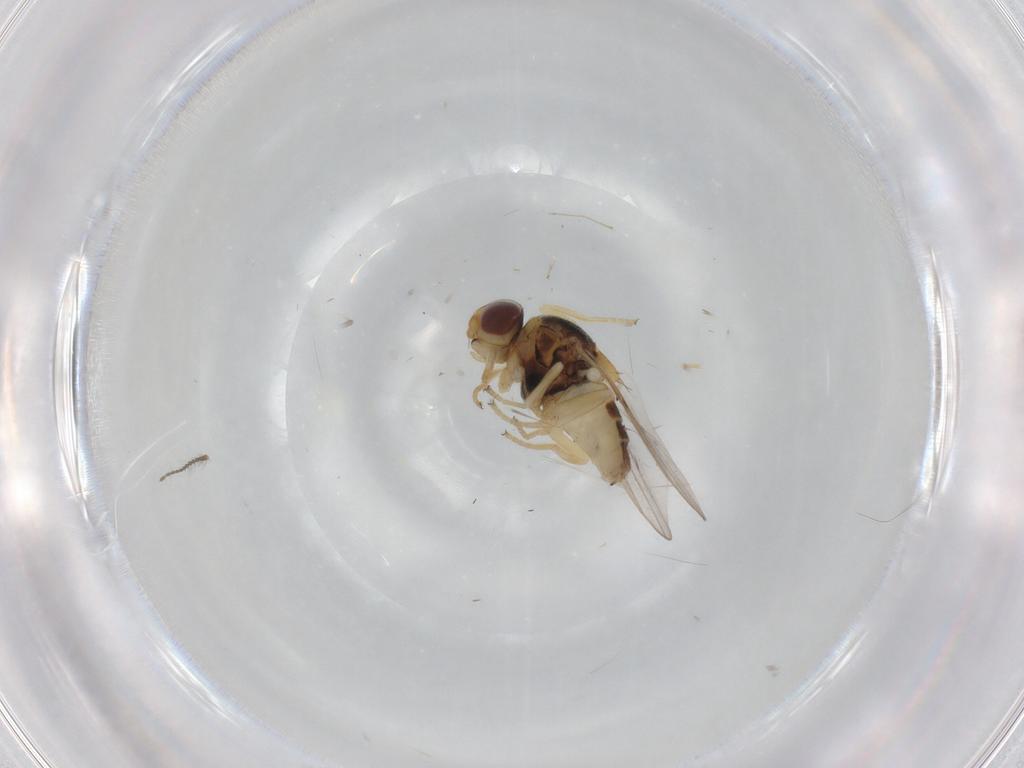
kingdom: Animalia
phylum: Arthropoda
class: Insecta
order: Diptera
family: Chloropidae
